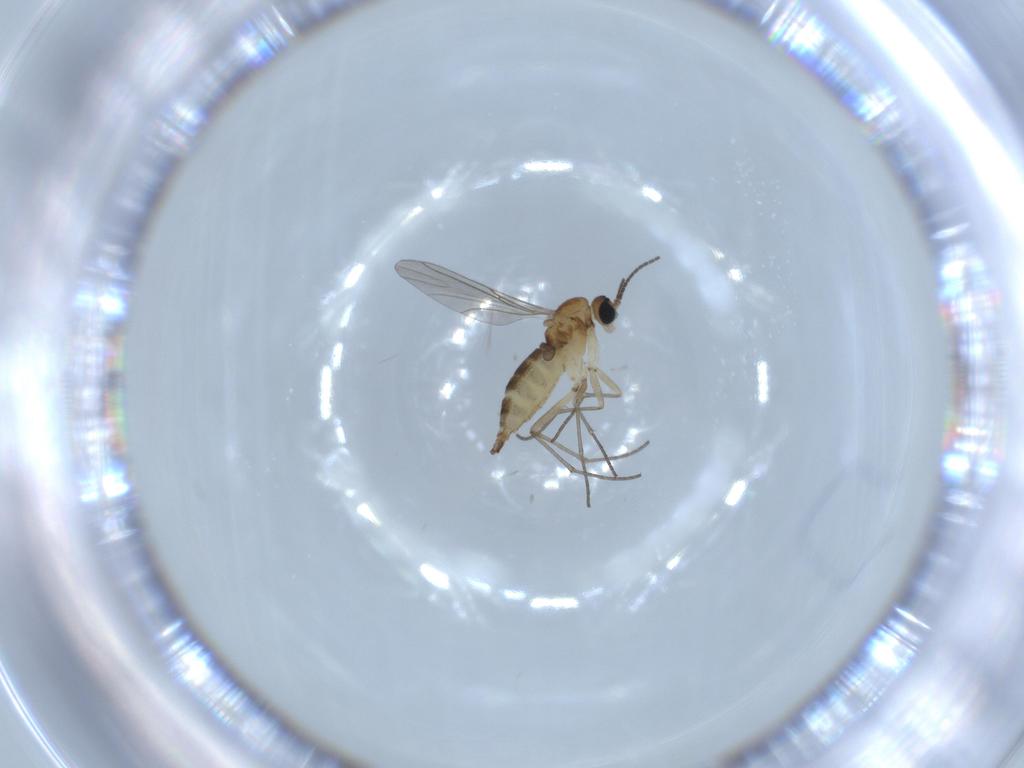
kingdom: Animalia
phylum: Arthropoda
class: Insecta
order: Diptera
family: Sciaridae
